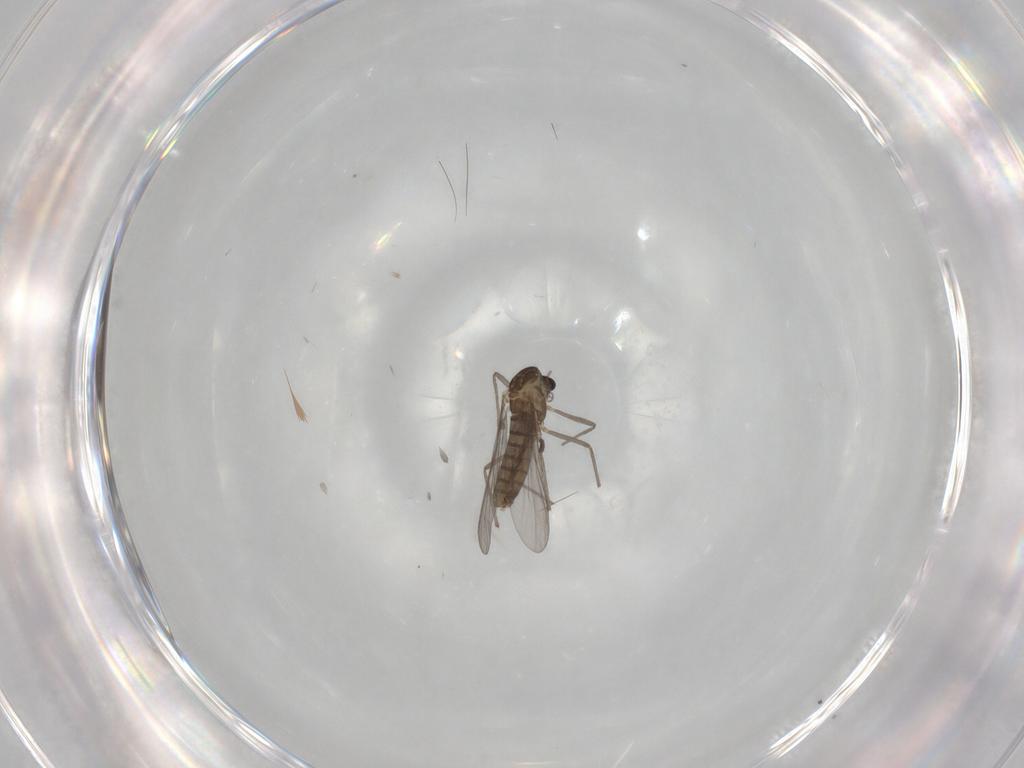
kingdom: Animalia
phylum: Arthropoda
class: Insecta
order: Diptera
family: Chironomidae
